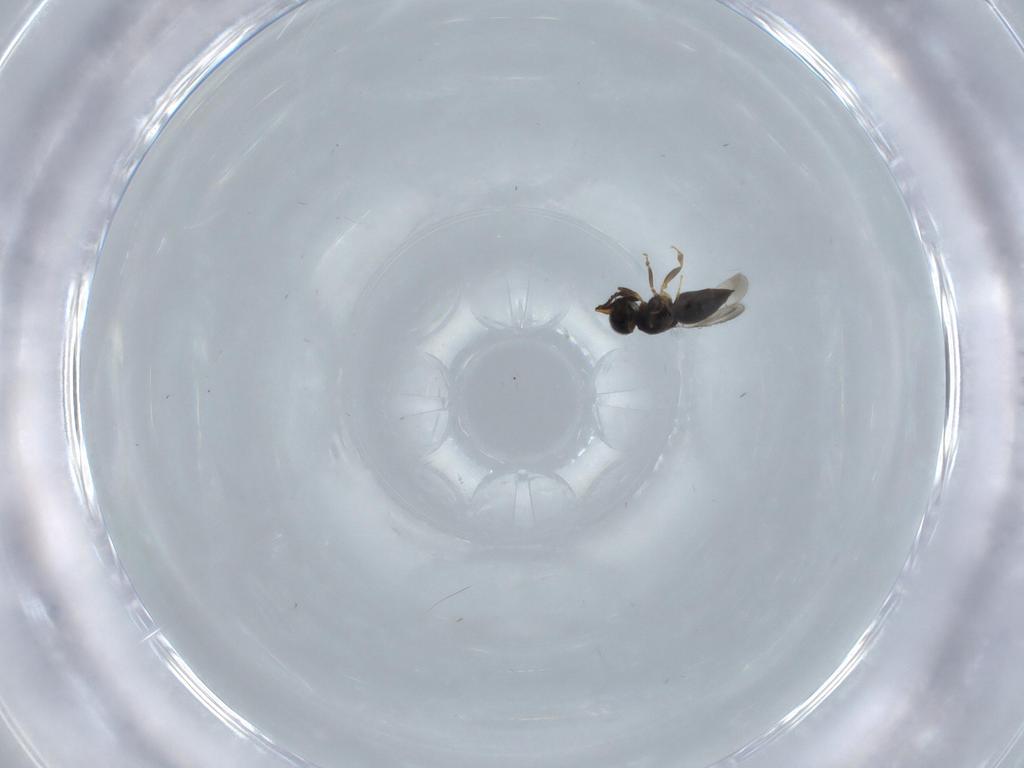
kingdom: Animalia
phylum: Arthropoda
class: Insecta
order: Hymenoptera
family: Ceraphronidae
